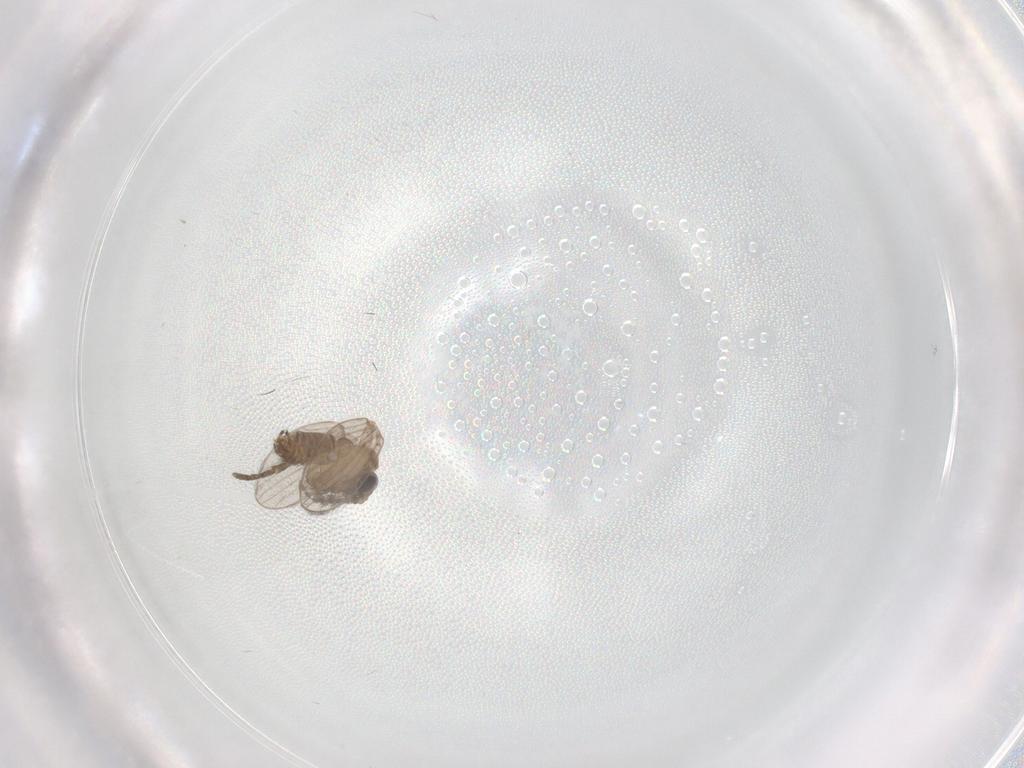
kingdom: Animalia
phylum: Arthropoda
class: Insecta
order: Diptera
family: Psychodidae
